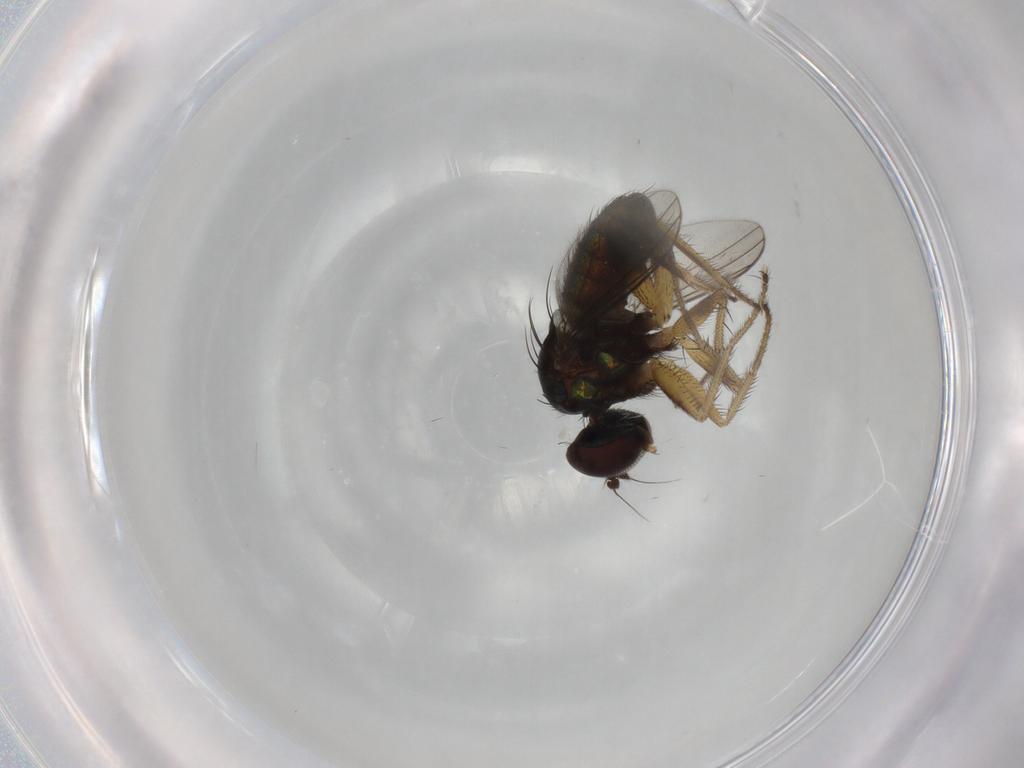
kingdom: Animalia
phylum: Arthropoda
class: Insecta
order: Diptera
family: Dolichopodidae
